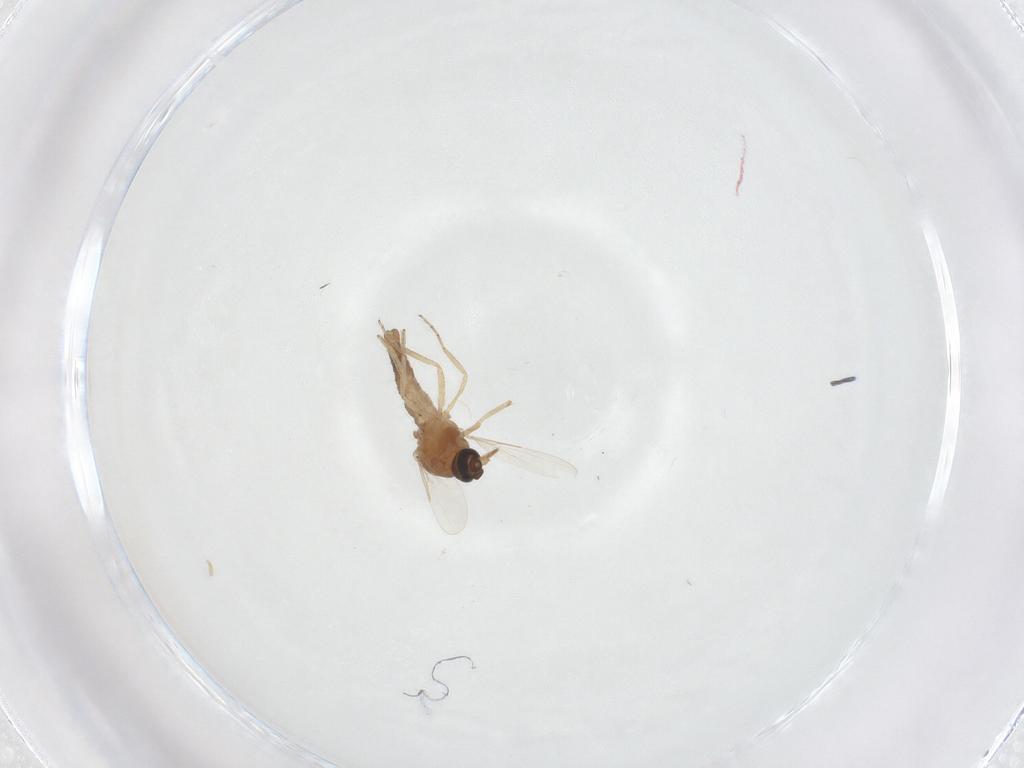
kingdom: Animalia
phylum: Arthropoda
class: Insecta
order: Diptera
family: Ceratopogonidae
